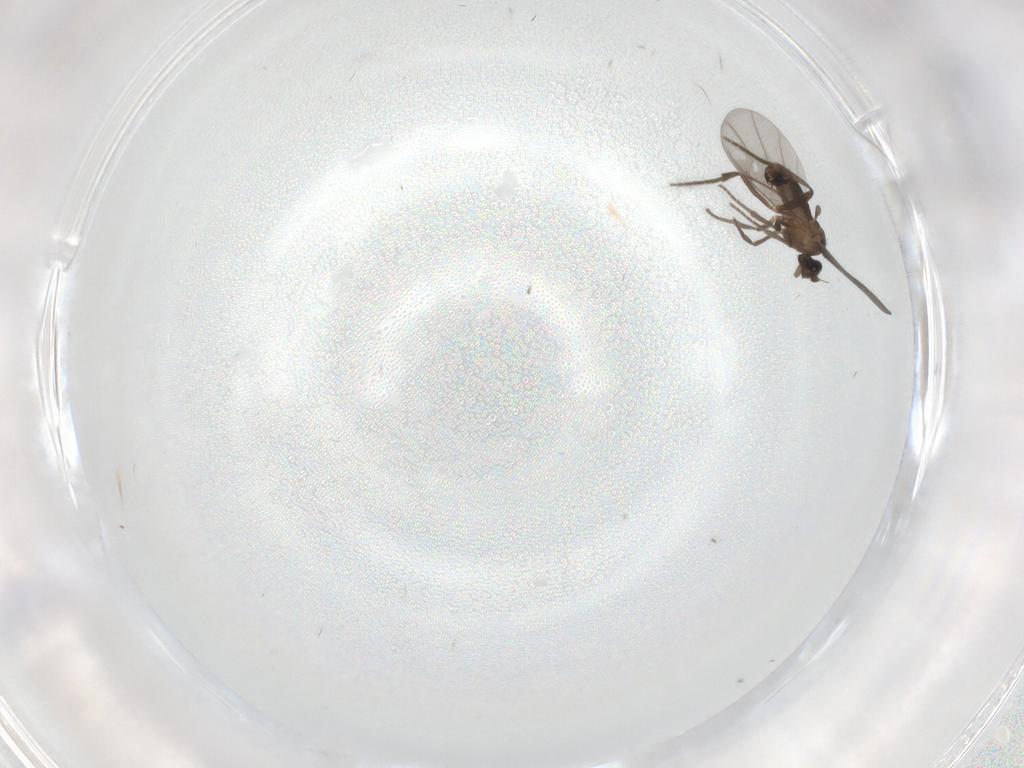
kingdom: Animalia
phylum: Arthropoda
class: Insecta
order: Diptera
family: Phoridae
